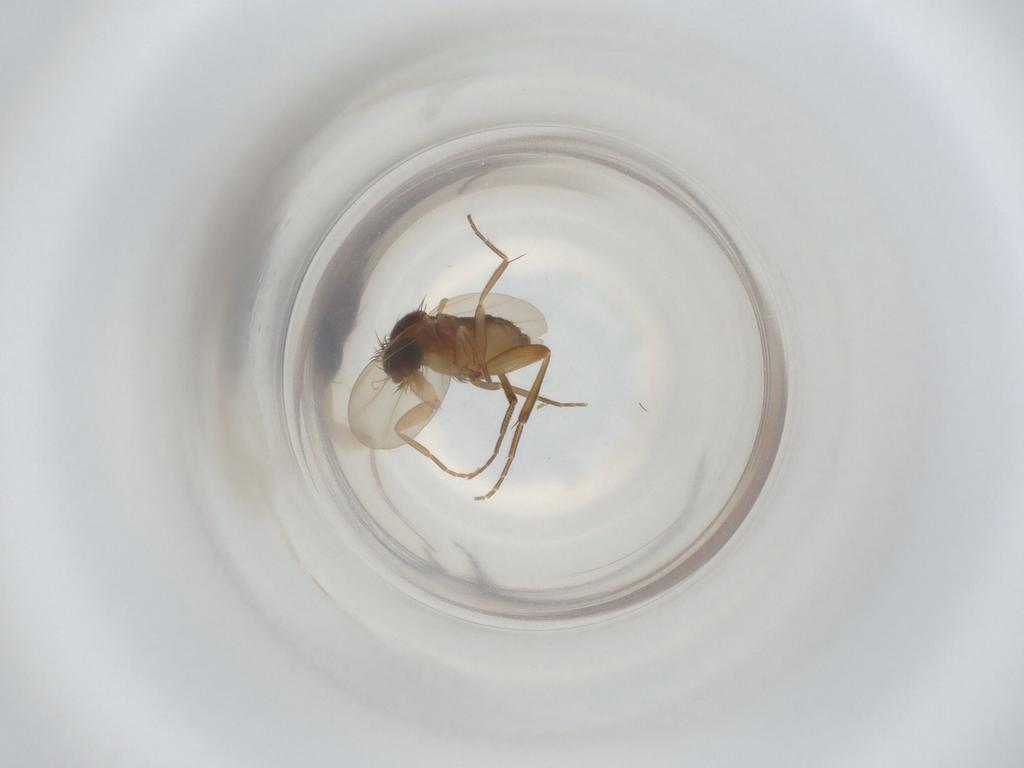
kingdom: Animalia
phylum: Arthropoda
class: Insecta
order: Diptera
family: Phoridae
